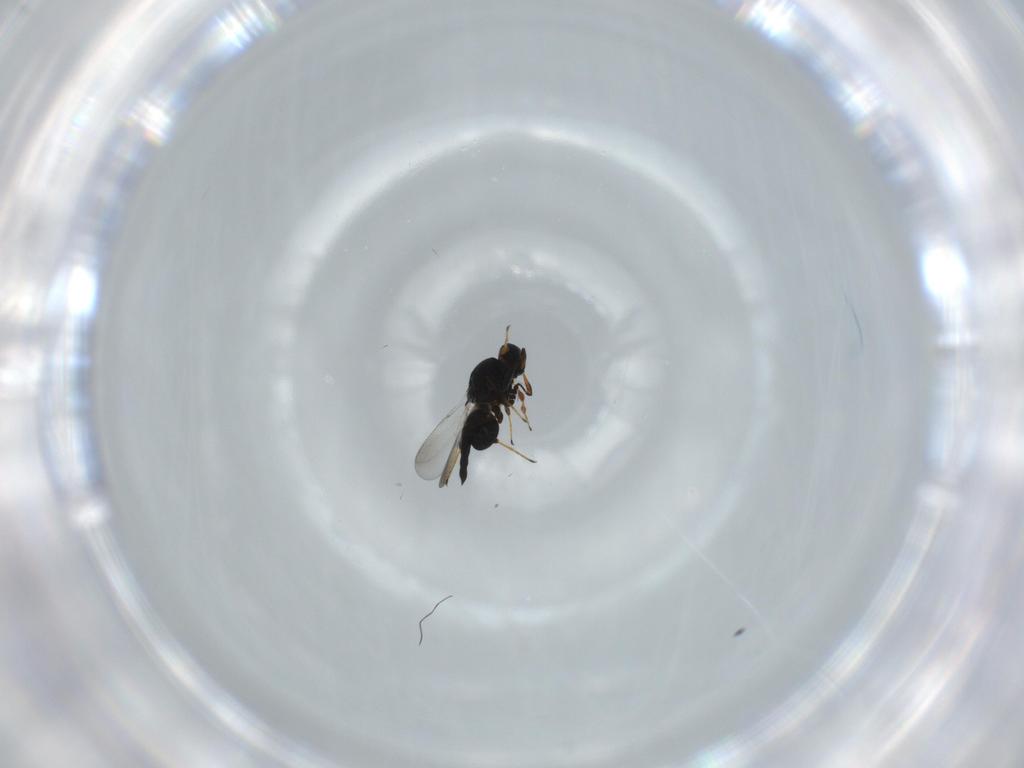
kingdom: Animalia
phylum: Arthropoda
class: Insecta
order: Hymenoptera
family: Platygastridae
